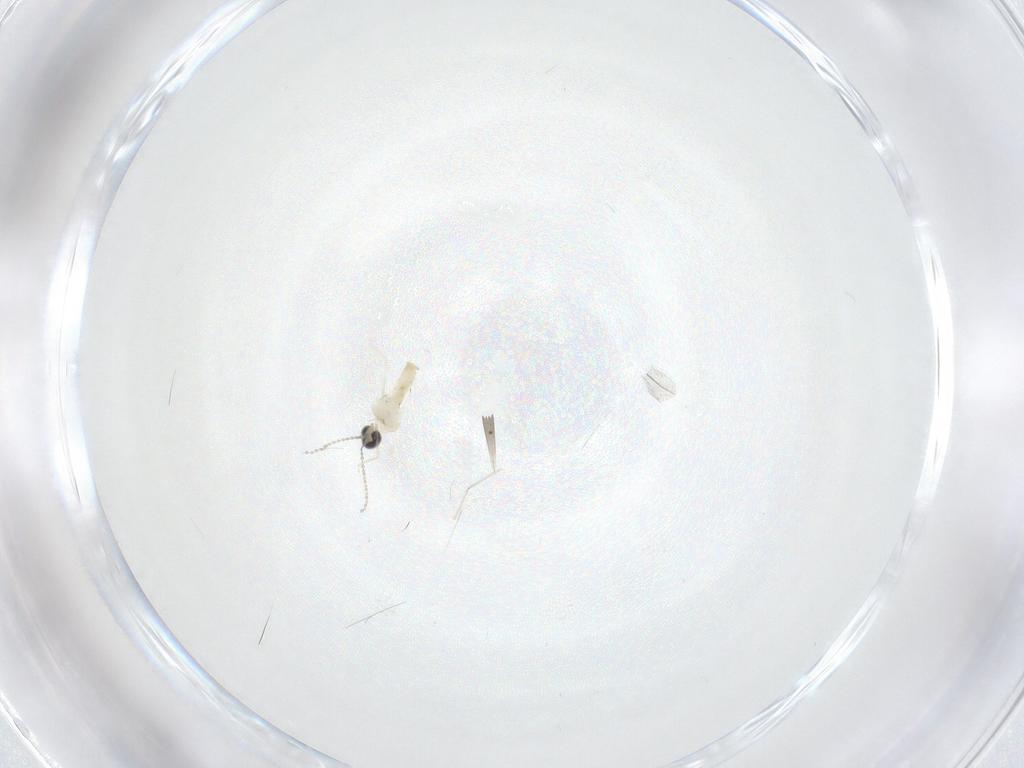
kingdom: Animalia
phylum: Arthropoda
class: Insecta
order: Diptera
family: Cecidomyiidae
